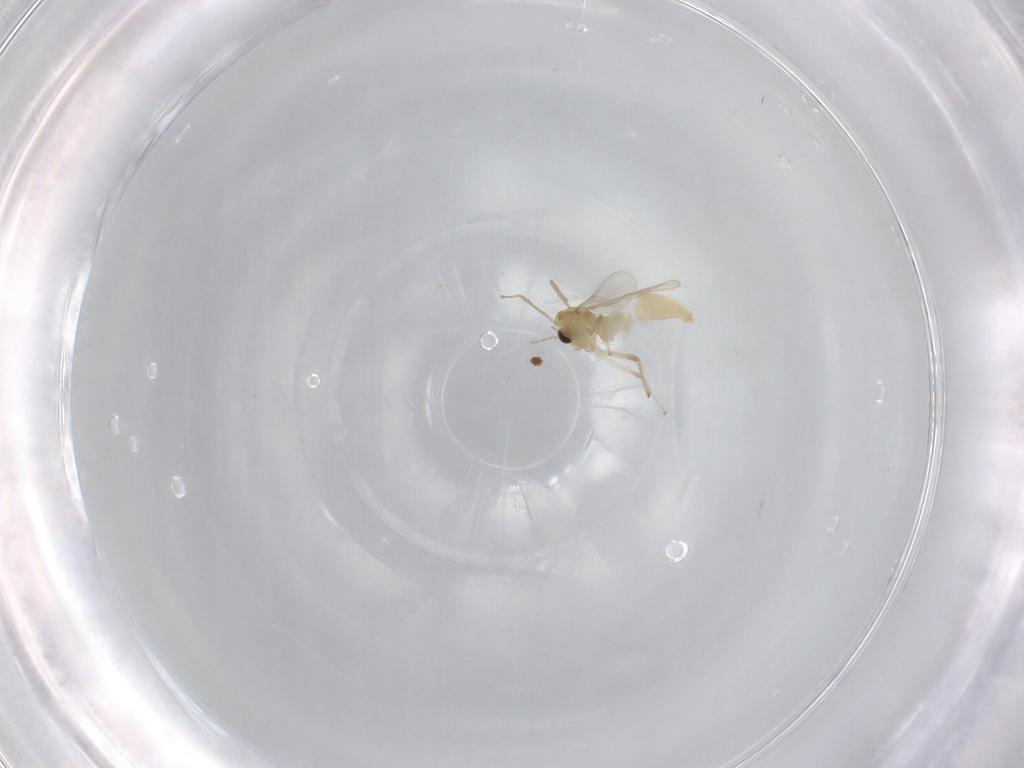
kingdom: Animalia
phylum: Arthropoda
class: Insecta
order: Diptera
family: Chironomidae
